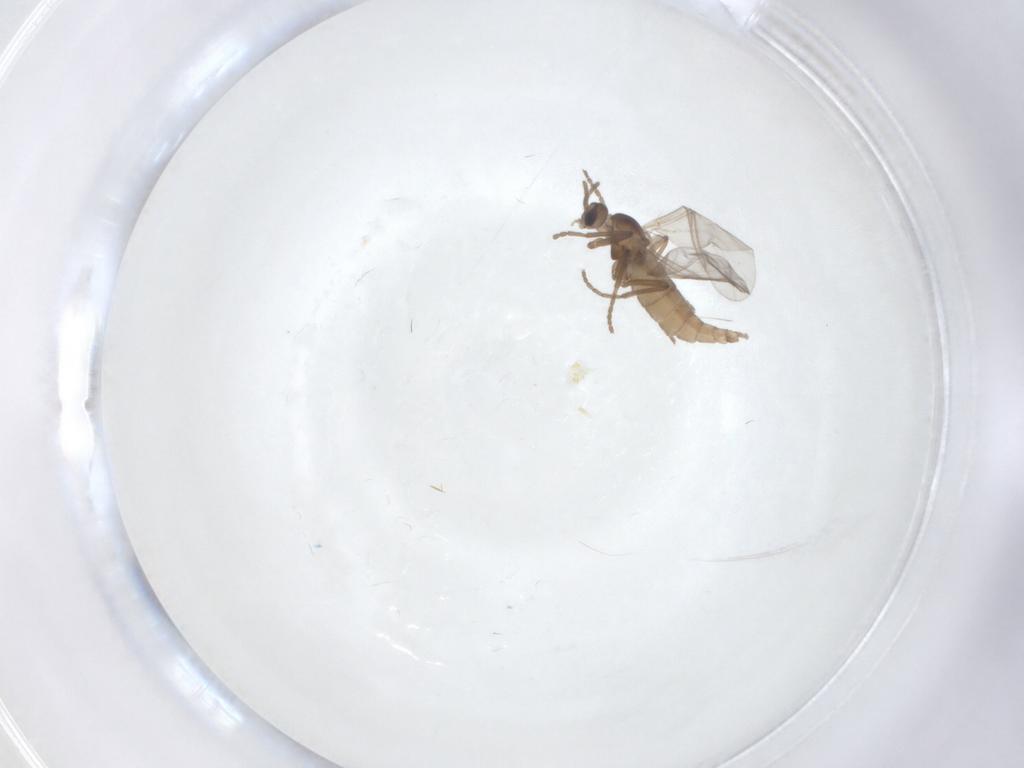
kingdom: Animalia
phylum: Arthropoda
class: Insecta
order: Diptera
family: Cecidomyiidae
